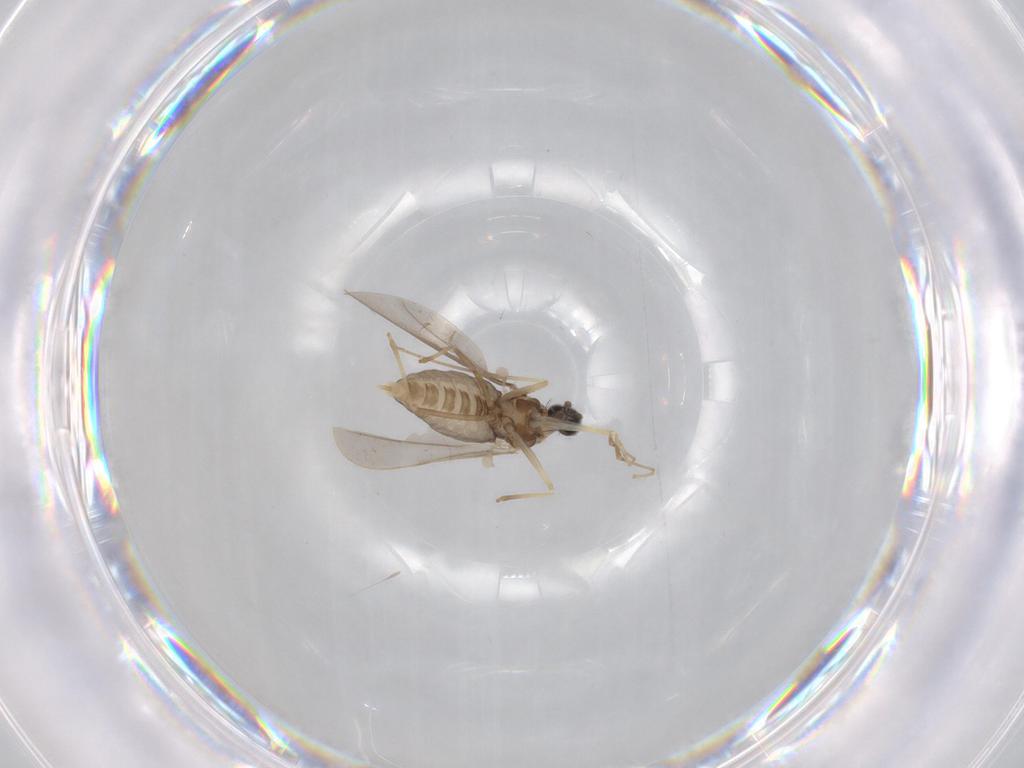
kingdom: Animalia
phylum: Arthropoda
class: Insecta
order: Diptera
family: Cecidomyiidae
